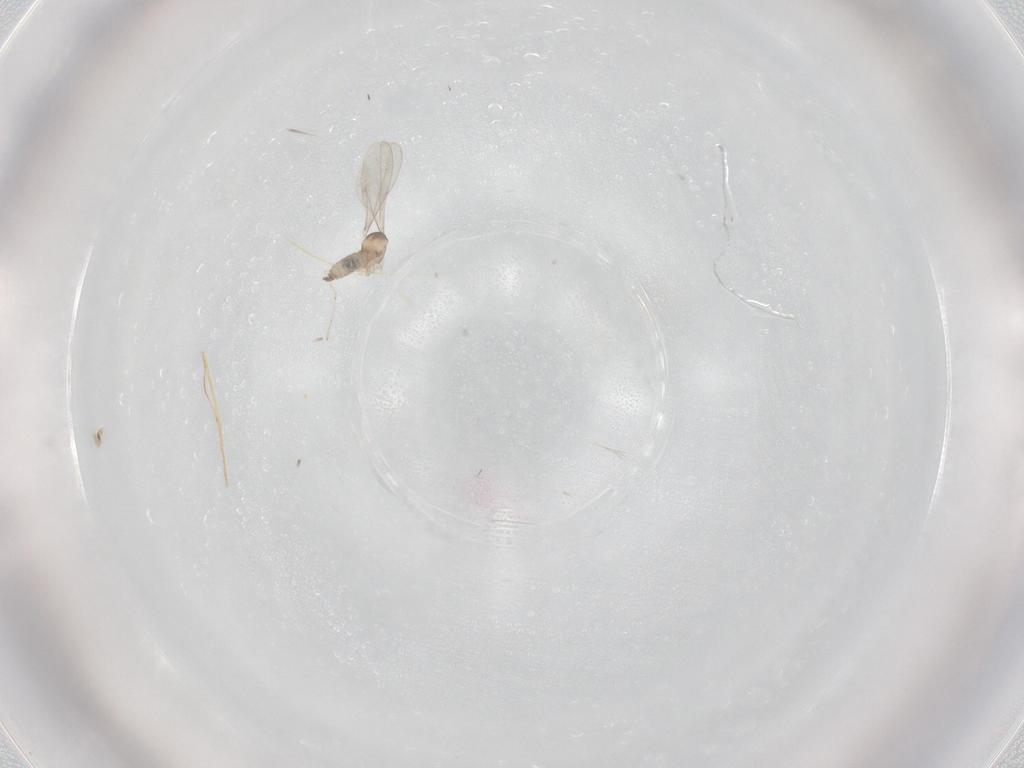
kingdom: Animalia
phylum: Arthropoda
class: Insecta
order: Diptera
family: Cecidomyiidae
